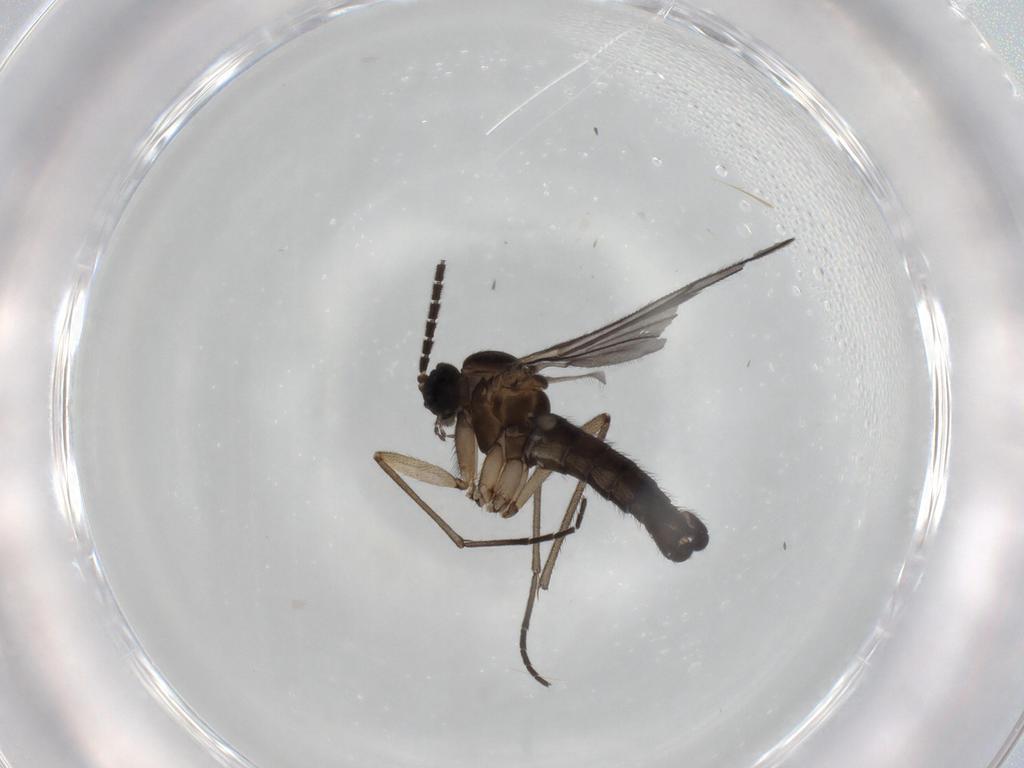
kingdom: Animalia
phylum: Arthropoda
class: Insecta
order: Diptera
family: Sciaridae
